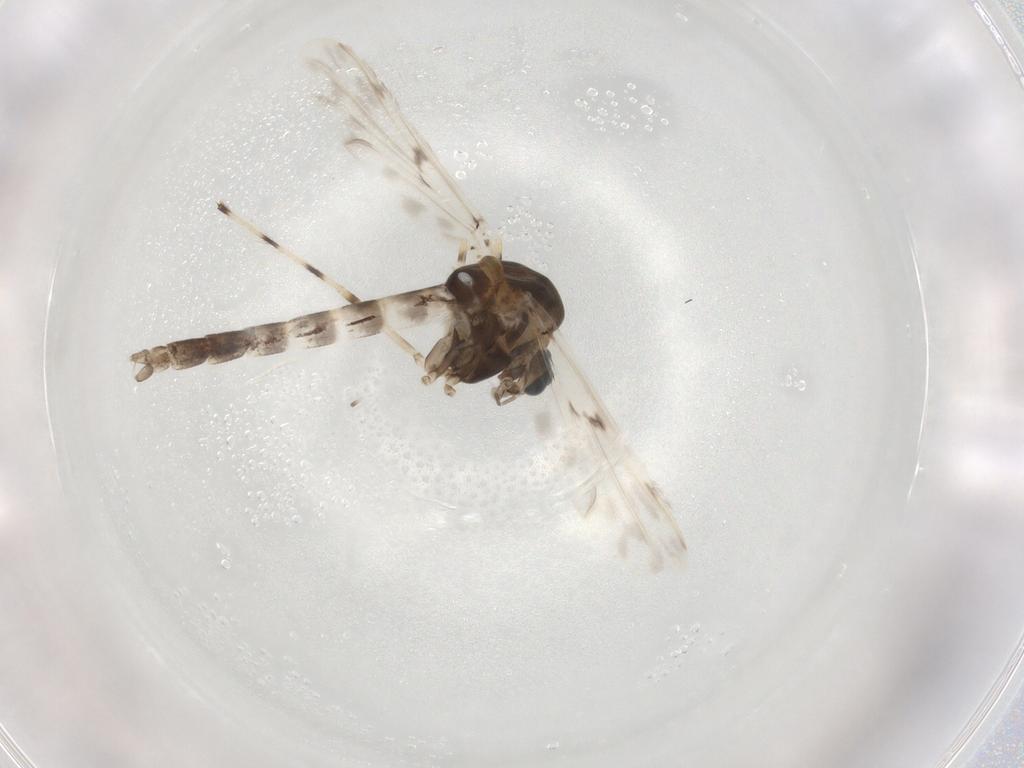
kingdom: Animalia
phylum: Arthropoda
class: Insecta
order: Diptera
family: Chironomidae
